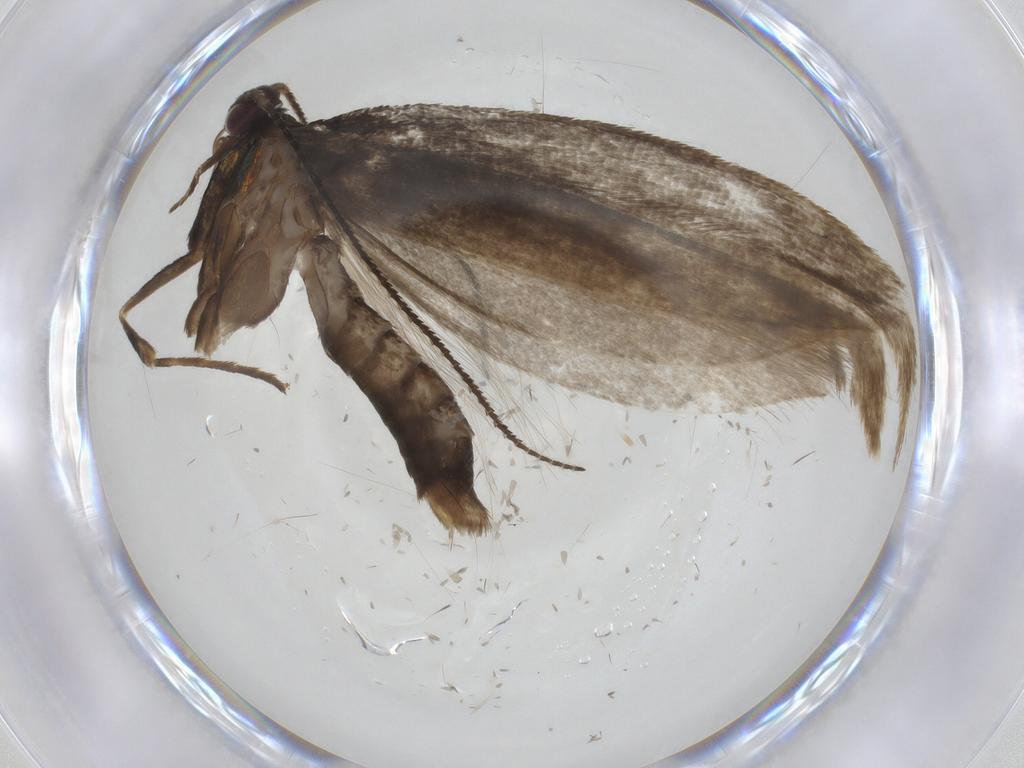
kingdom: Animalia
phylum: Arthropoda
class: Insecta
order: Lepidoptera
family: Argyresthiidae
